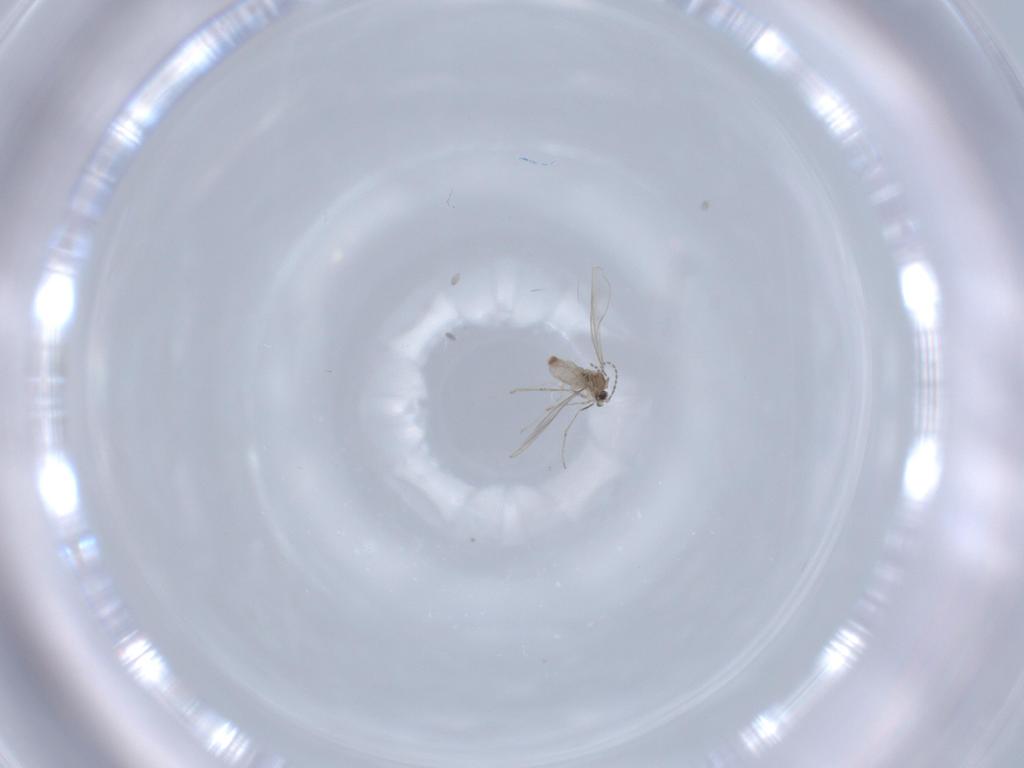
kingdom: Animalia
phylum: Arthropoda
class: Insecta
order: Diptera
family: Cecidomyiidae
